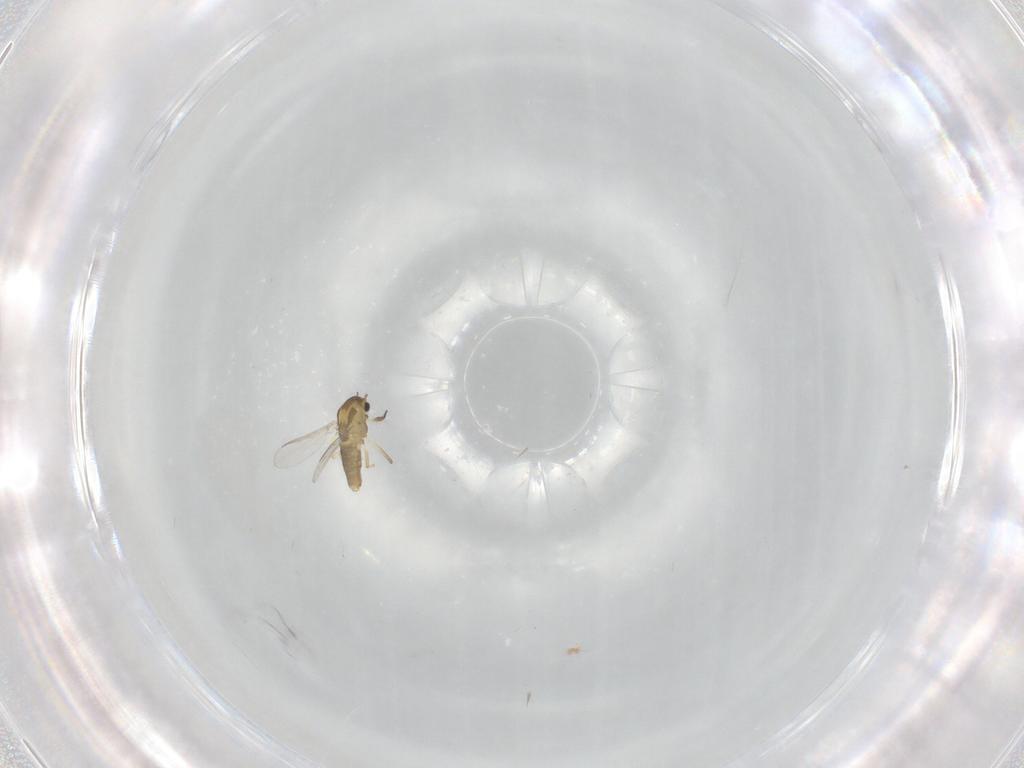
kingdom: Animalia
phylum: Arthropoda
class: Insecta
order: Diptera
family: Chironomidae
